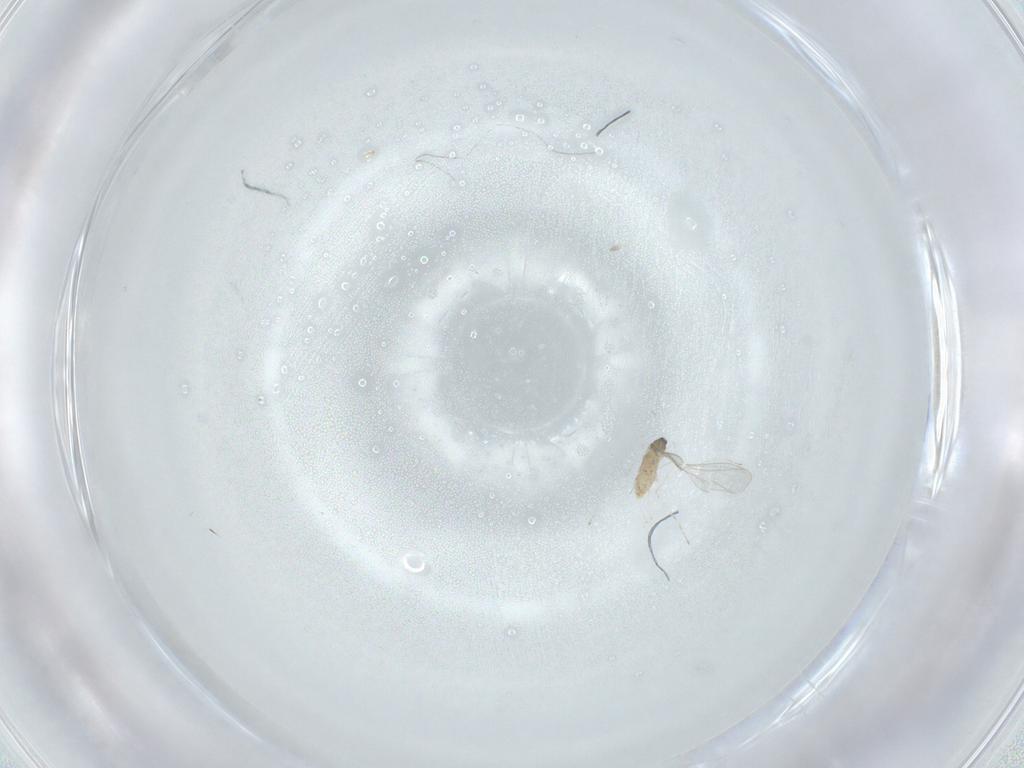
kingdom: Animalia
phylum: Arthropoda
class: Insecta
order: Diptera
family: Cecidomyiidae
